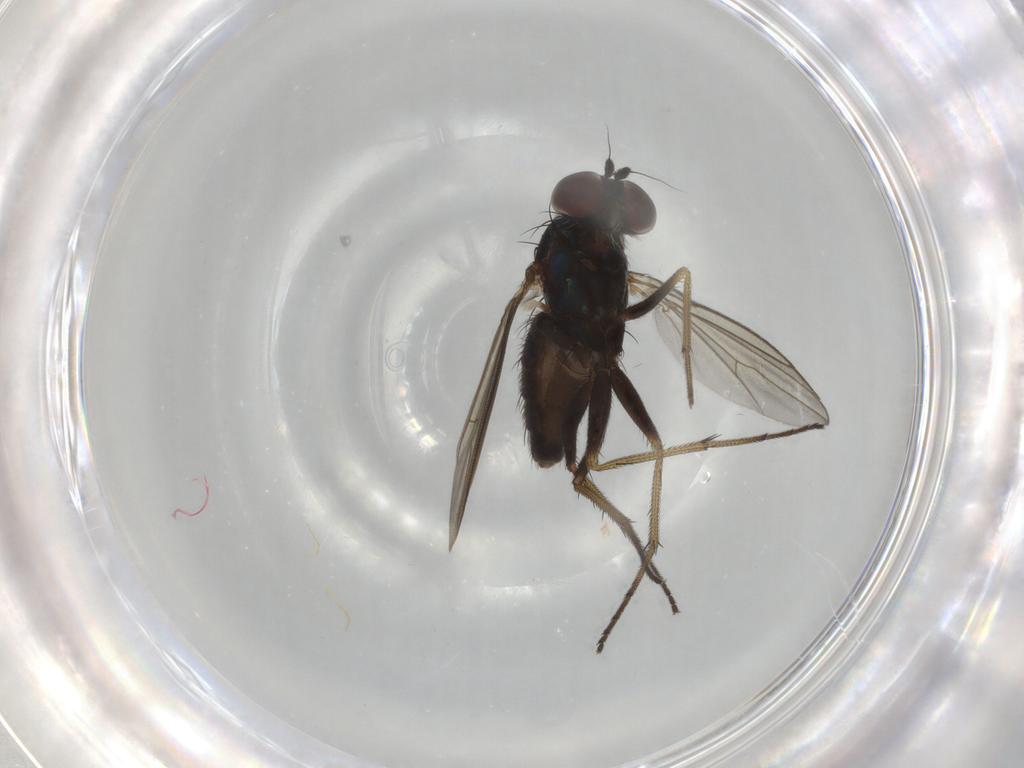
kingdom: Animalia
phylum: Arthropoda
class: Insecta
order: Diptera
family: Dolichopodidae
